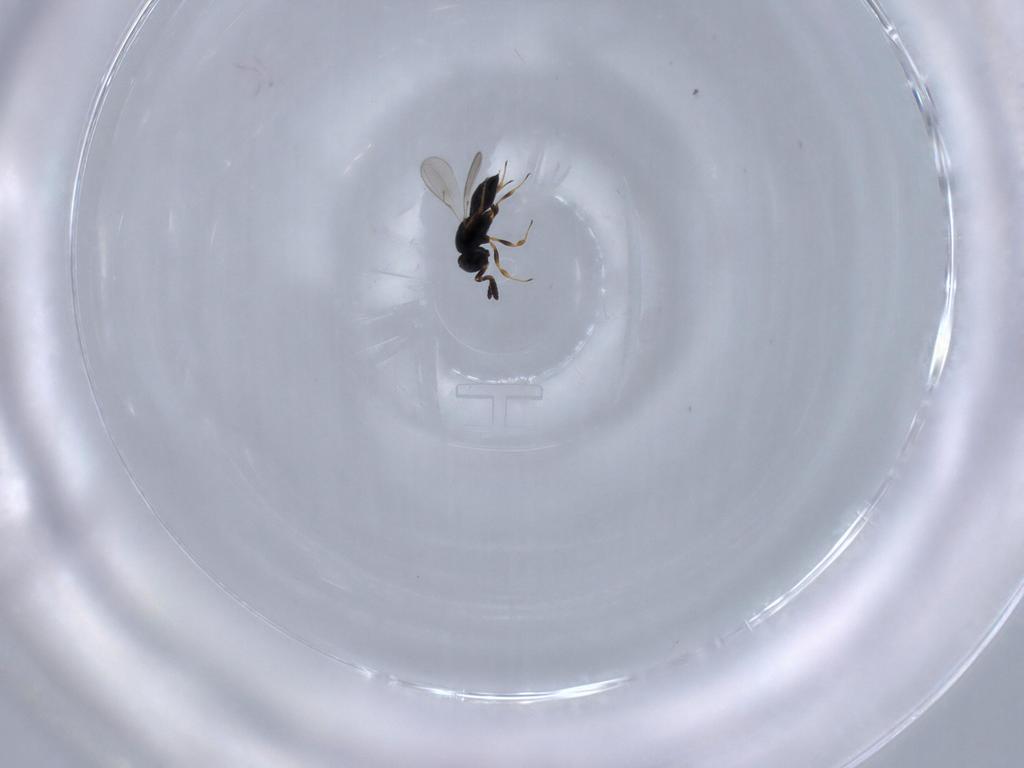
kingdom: Animalia
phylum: Arthropoda
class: Insecta
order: Hymenoptera
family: Scelionidae
